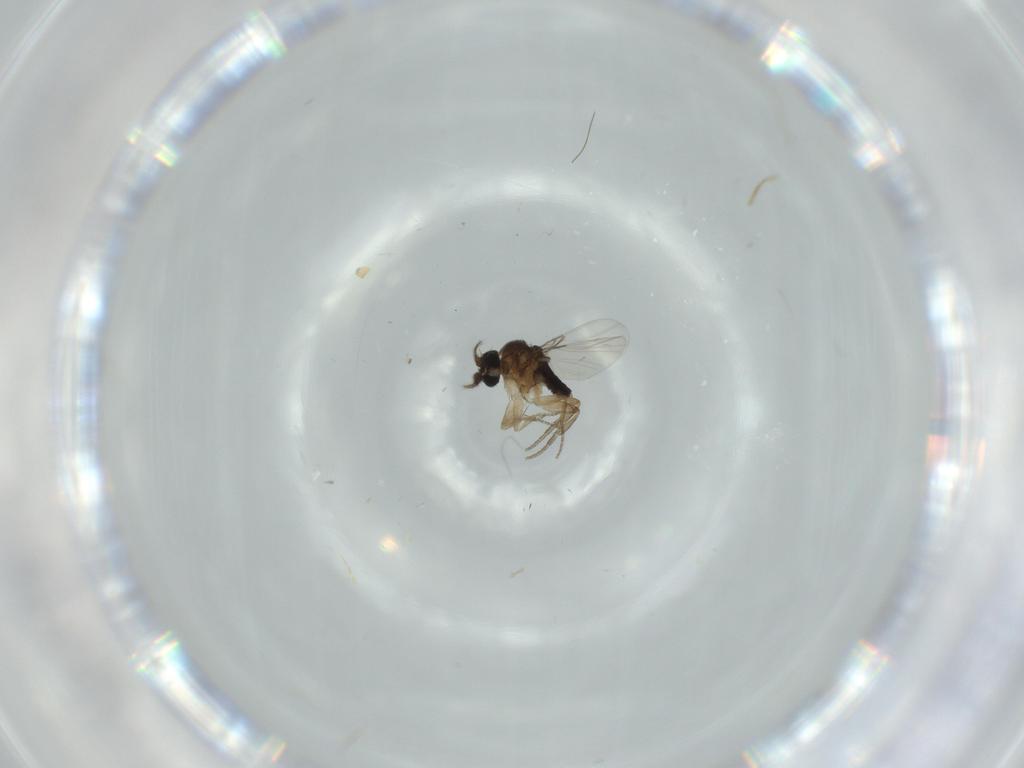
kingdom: Animalia
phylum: Arthropoda
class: Insecta
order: Diptera
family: Phoridae
